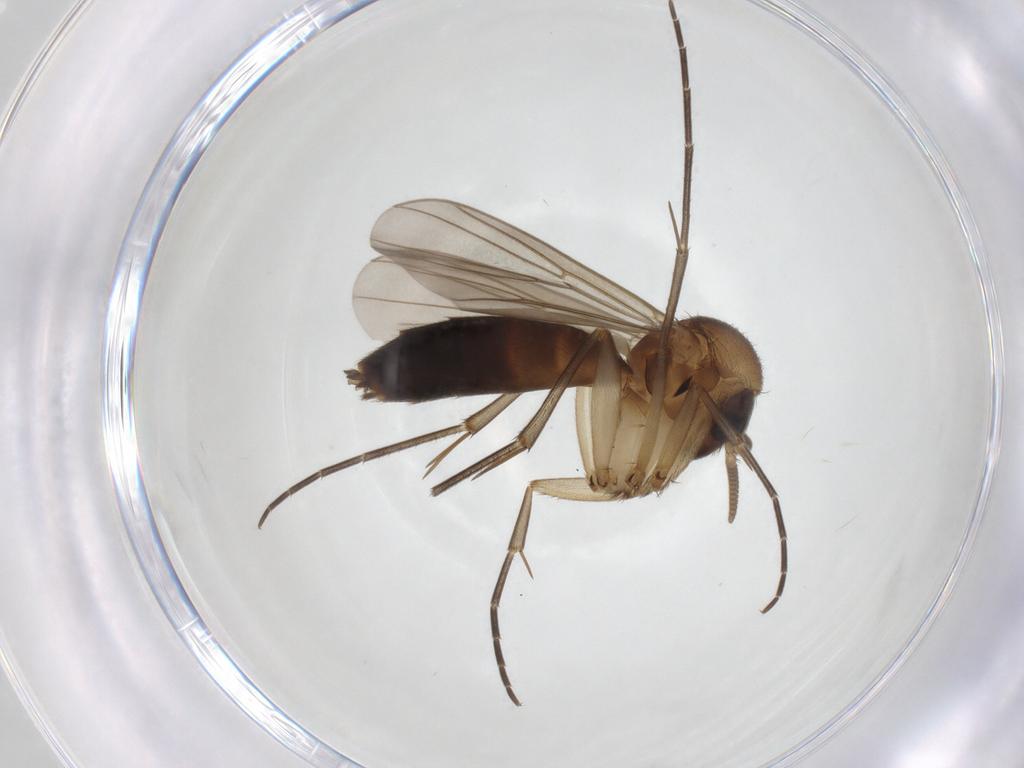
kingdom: Animalia
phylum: Arthropoda
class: Insecta
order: Diptera
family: Mycetophilidae
